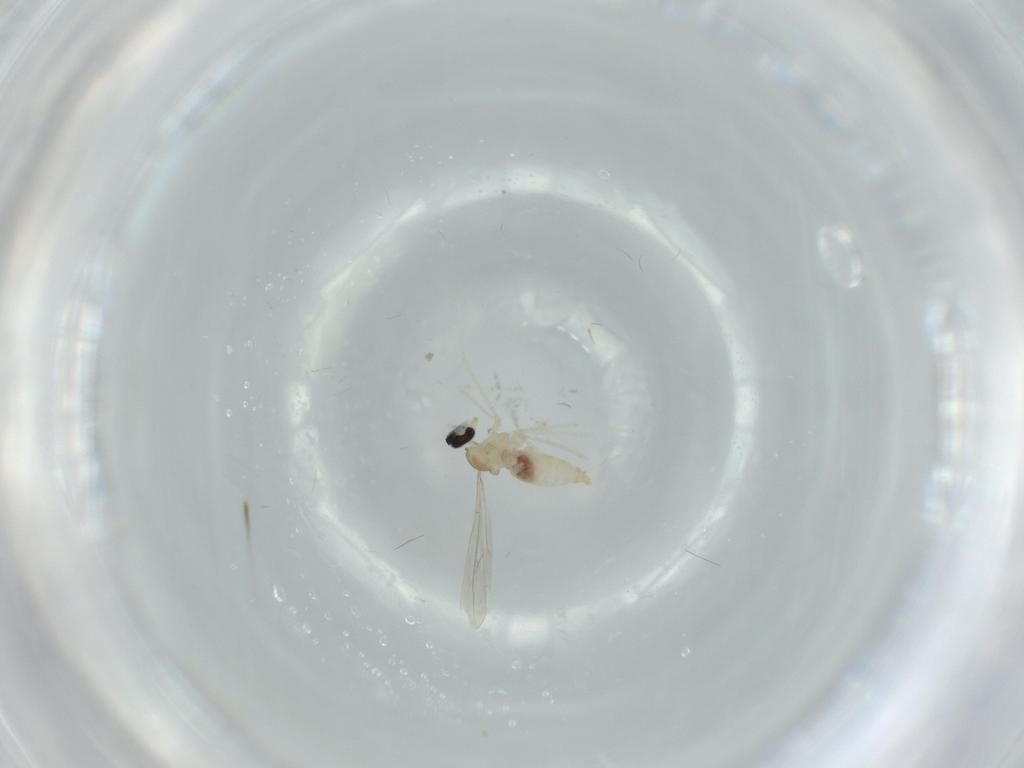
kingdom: Animalia
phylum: Arthropoda
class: Insecta
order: Diptera
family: Cecidomyiidae
